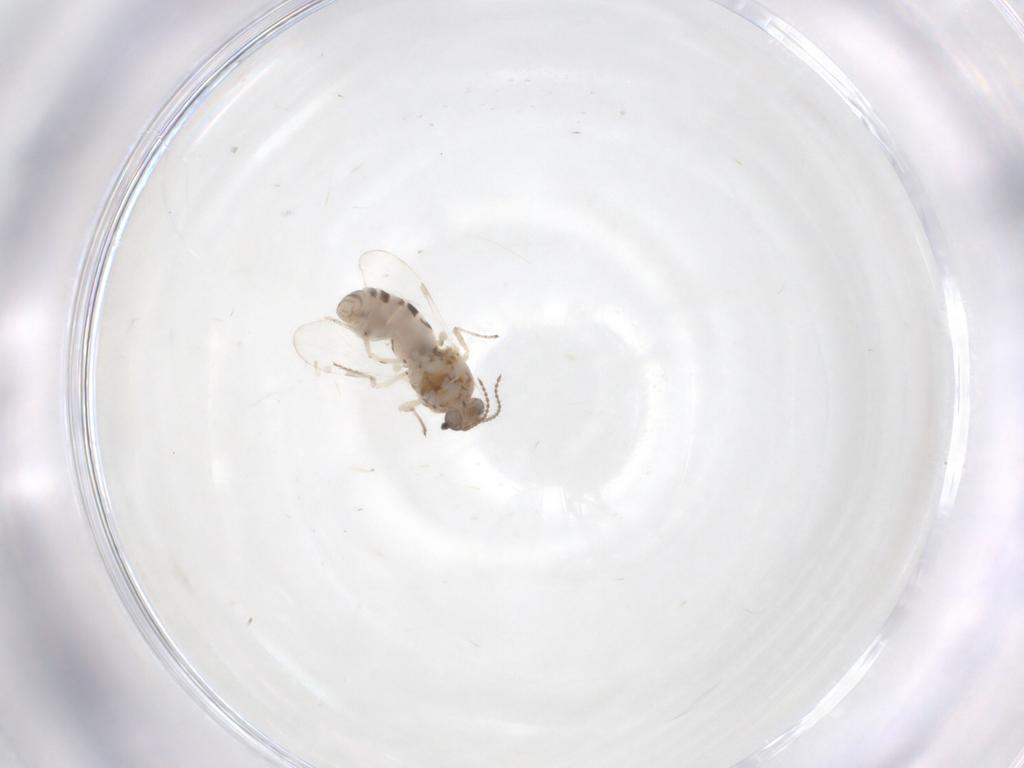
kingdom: Animalia
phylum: Arthropoda
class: Insecta
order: Diptera
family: Ceratopogonidae
